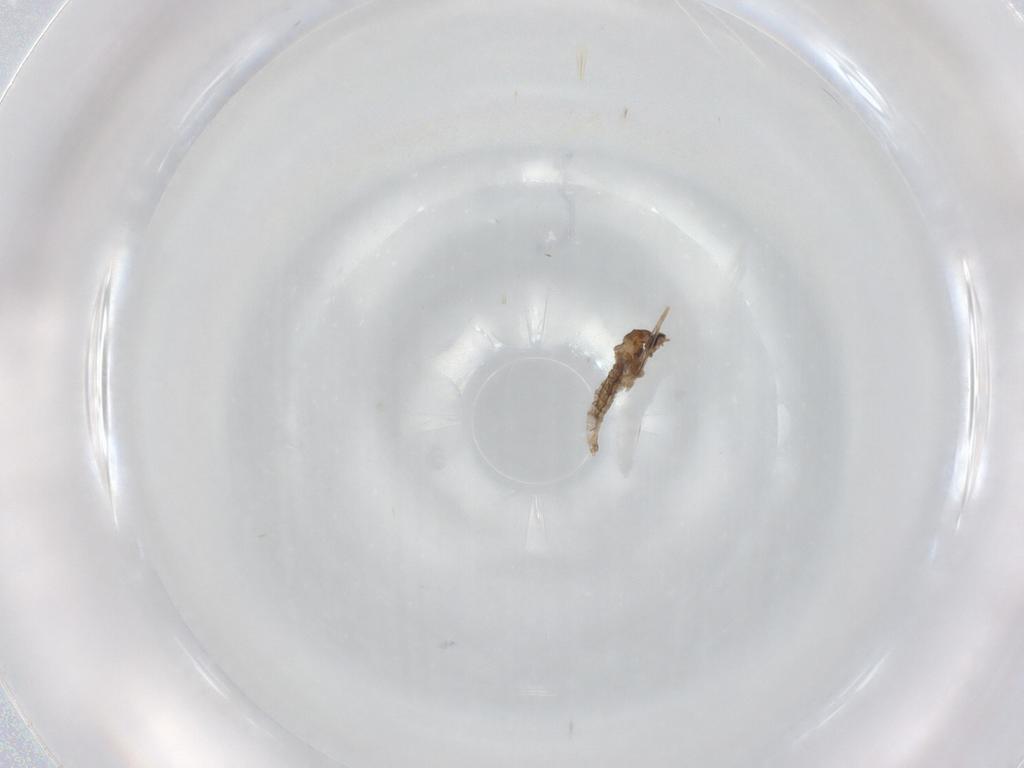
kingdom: Animalia
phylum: Arthropoda
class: Insecta
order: Diptera
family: Cecidomyiidae
